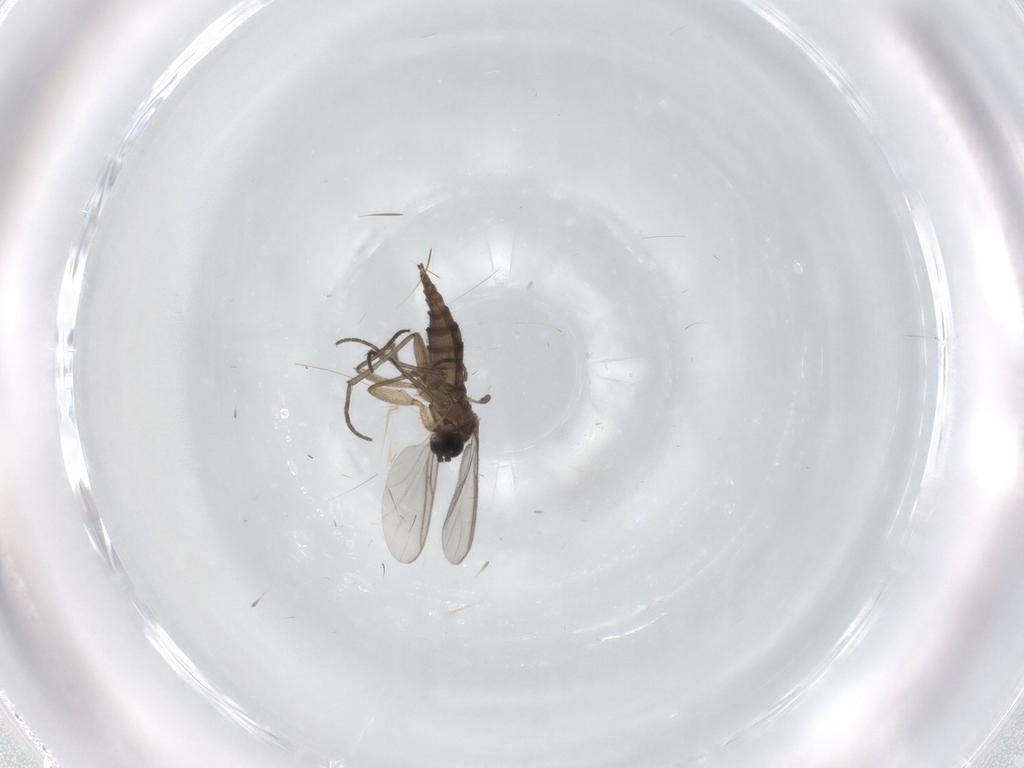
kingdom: Animalia
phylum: Arthropoda
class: Insecta
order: Diptera
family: Sciaridae
